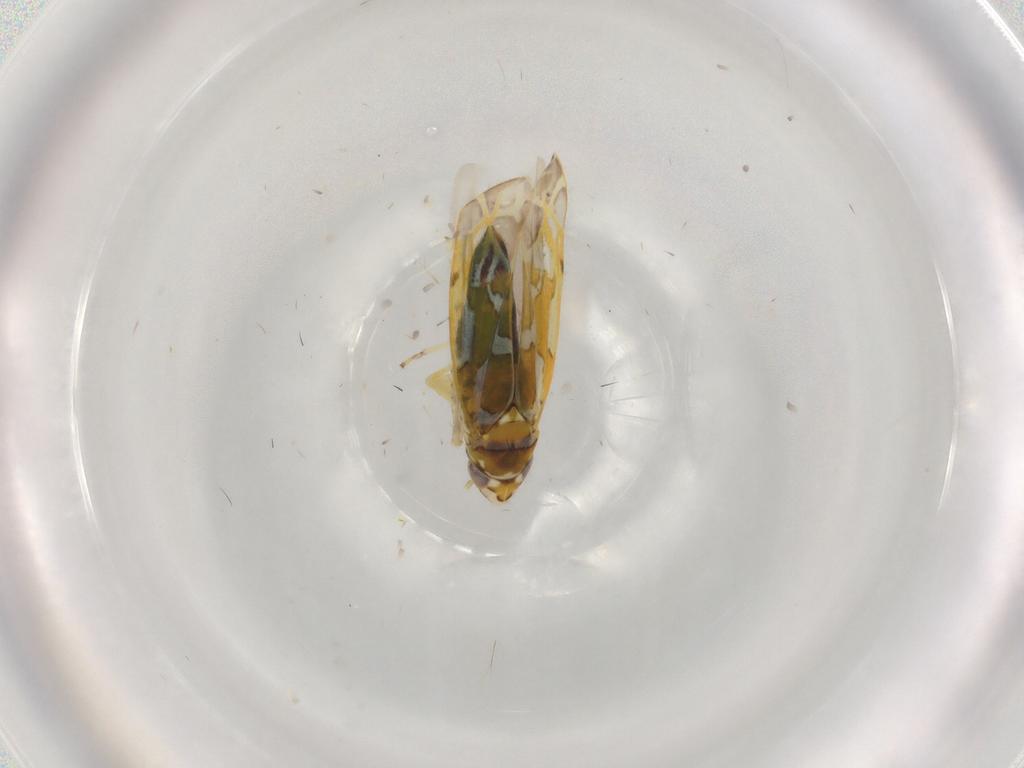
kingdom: Animalia
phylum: Arthropoda
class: Insecta
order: Hemiptera
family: Cicadellidae
